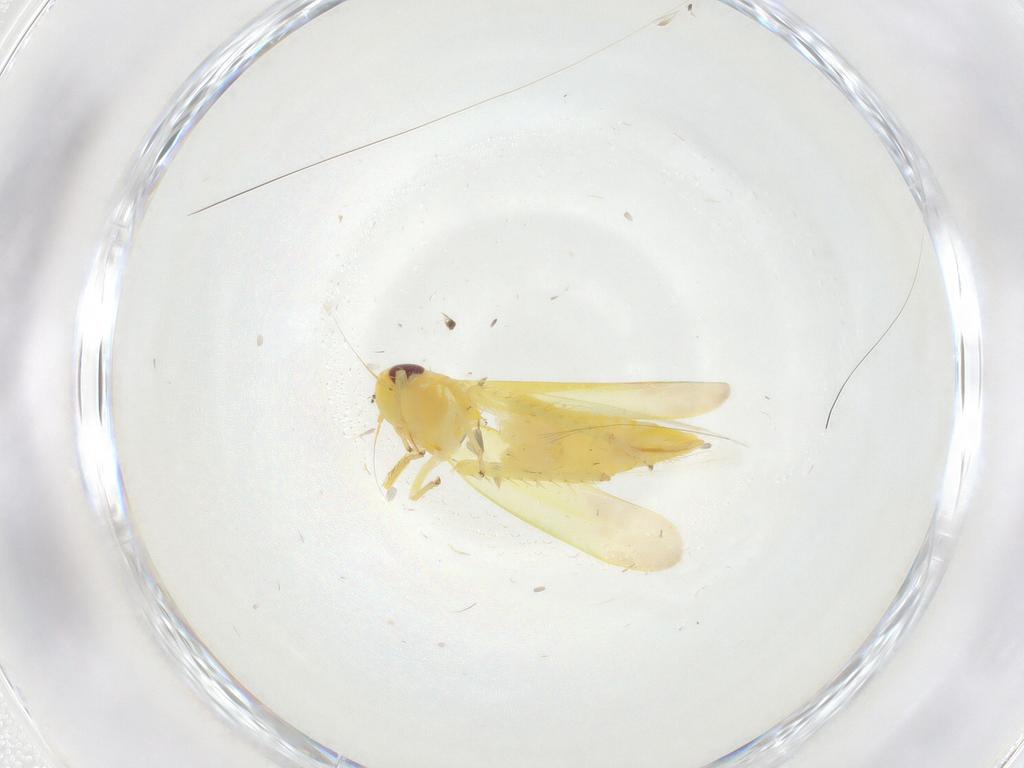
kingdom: Animalia
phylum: Arthropoda
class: Insecta
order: Hemiptera
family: Cicadellidae
